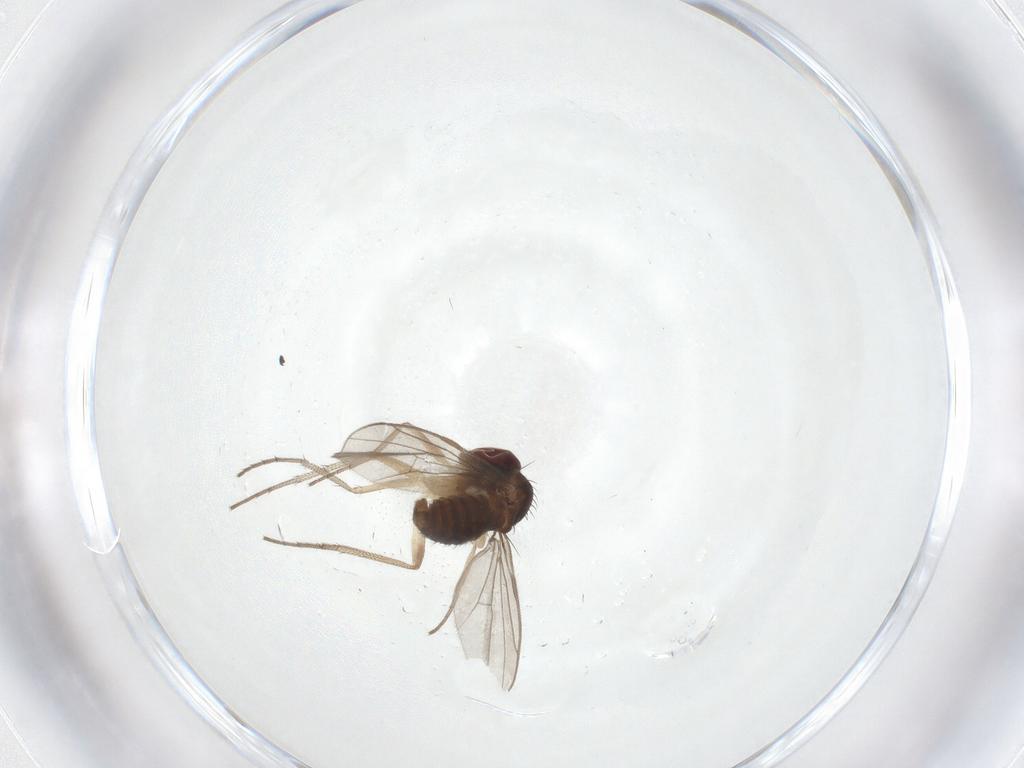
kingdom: Animalia
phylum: Arthropoda
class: Insecta
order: Diptera
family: Dolichopodidae
